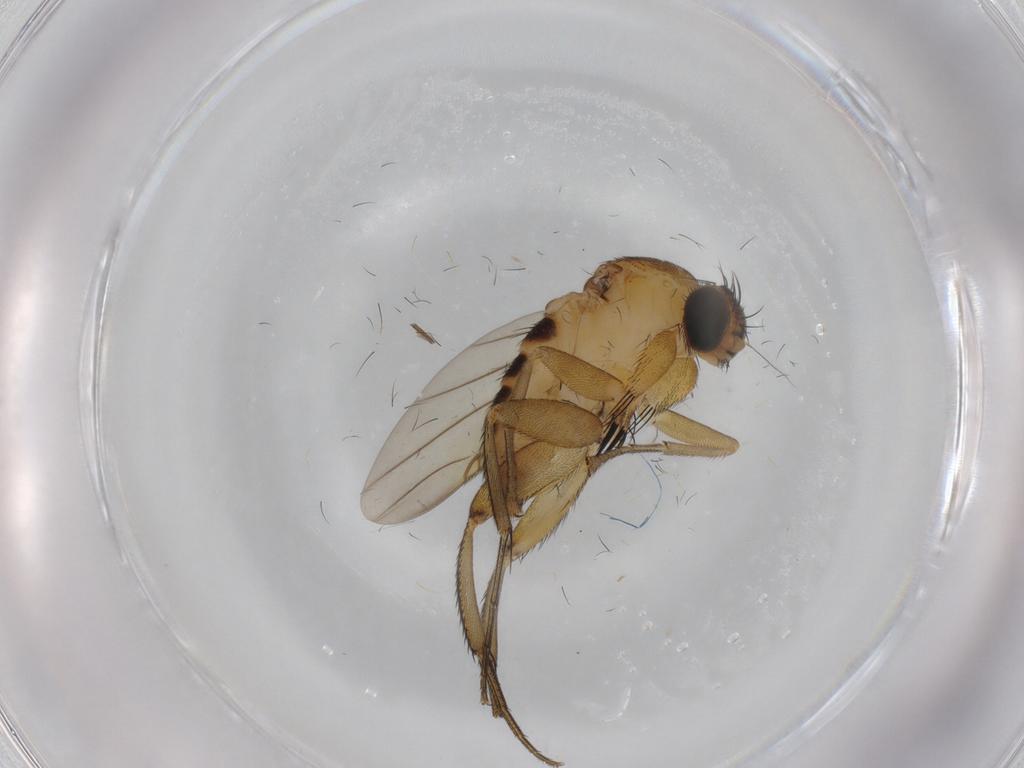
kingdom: Animalia
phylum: Arthropoda
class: Insecta
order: Diptera
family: Phoridae
